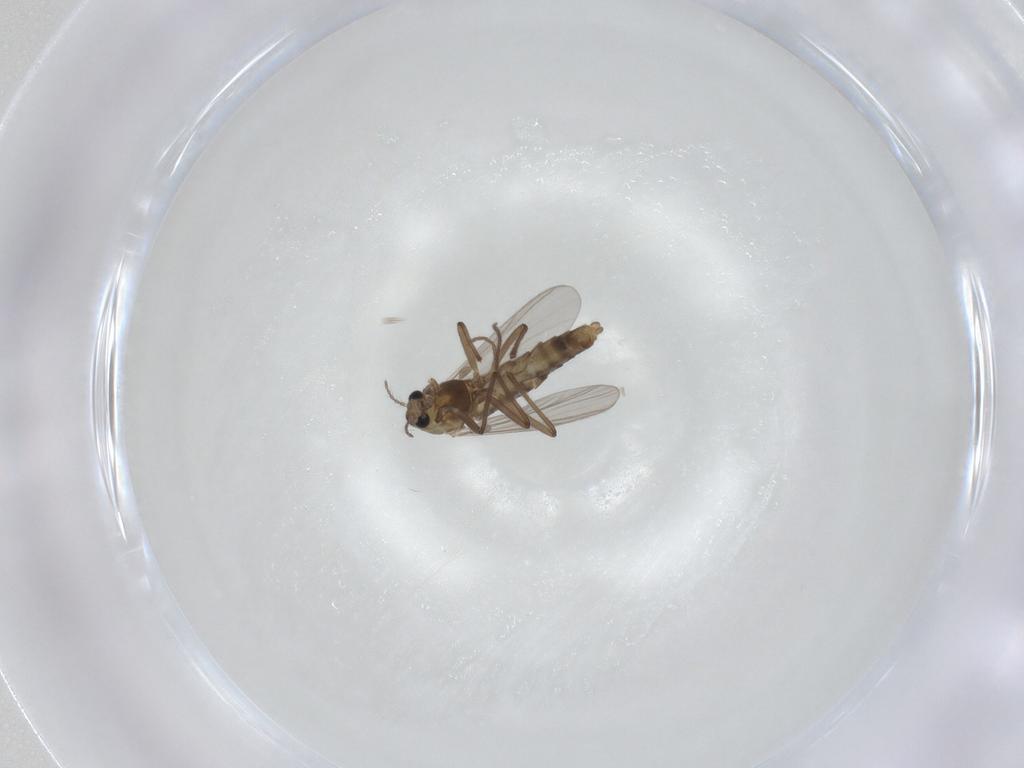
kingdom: Animalia
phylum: Arthropoda
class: Insecta
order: Diptera
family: Chironomidae
